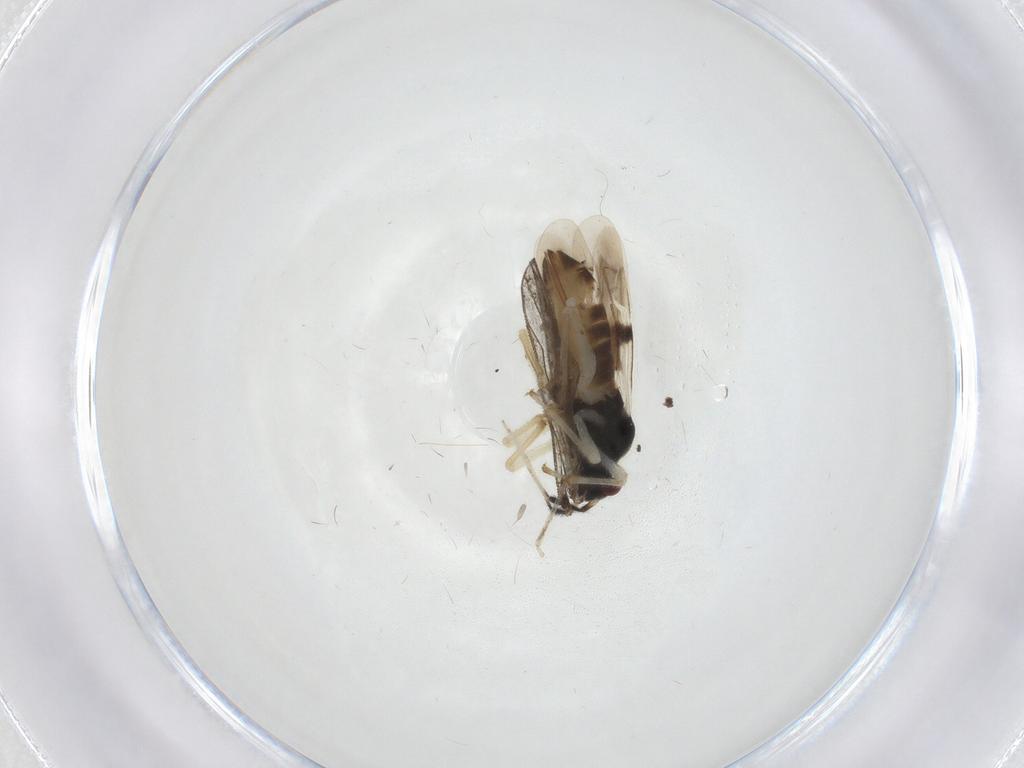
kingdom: Animalia
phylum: Arthropoda
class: Insecta
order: Hemiptera
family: Miridae
